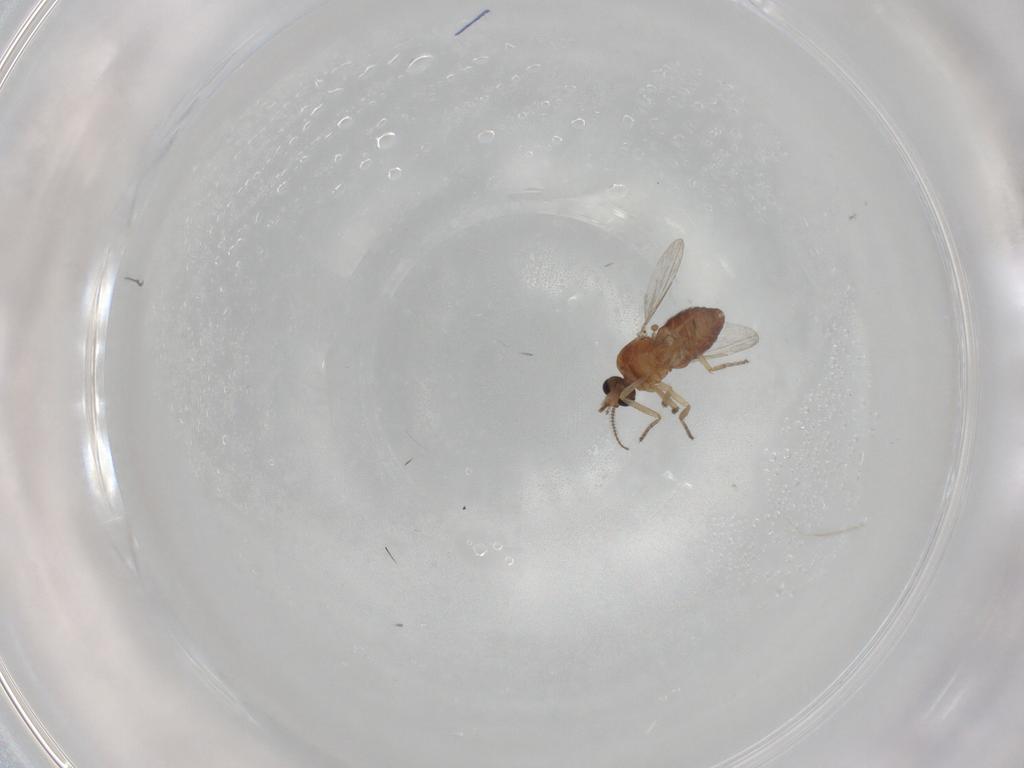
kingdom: Animalia
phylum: Arthropoda
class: Insecta
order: Diptera
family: Ceratopogonidae
